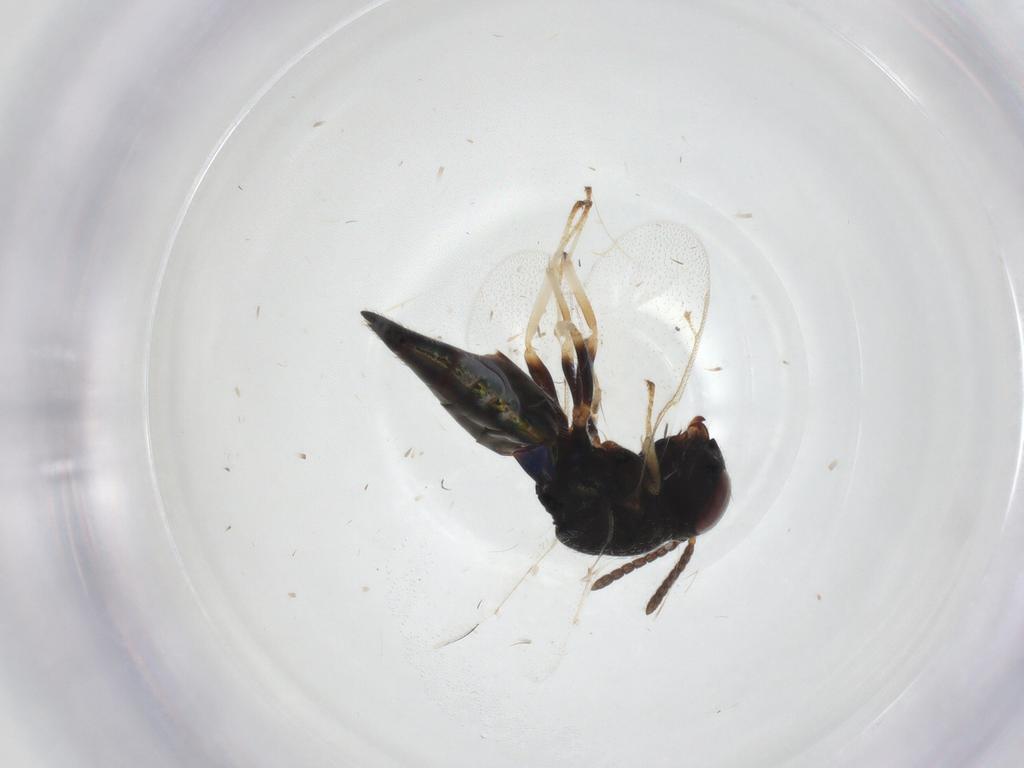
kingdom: Animalia
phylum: Arthropoda
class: Insecta
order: Hymenoptera
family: Pteromalidae
